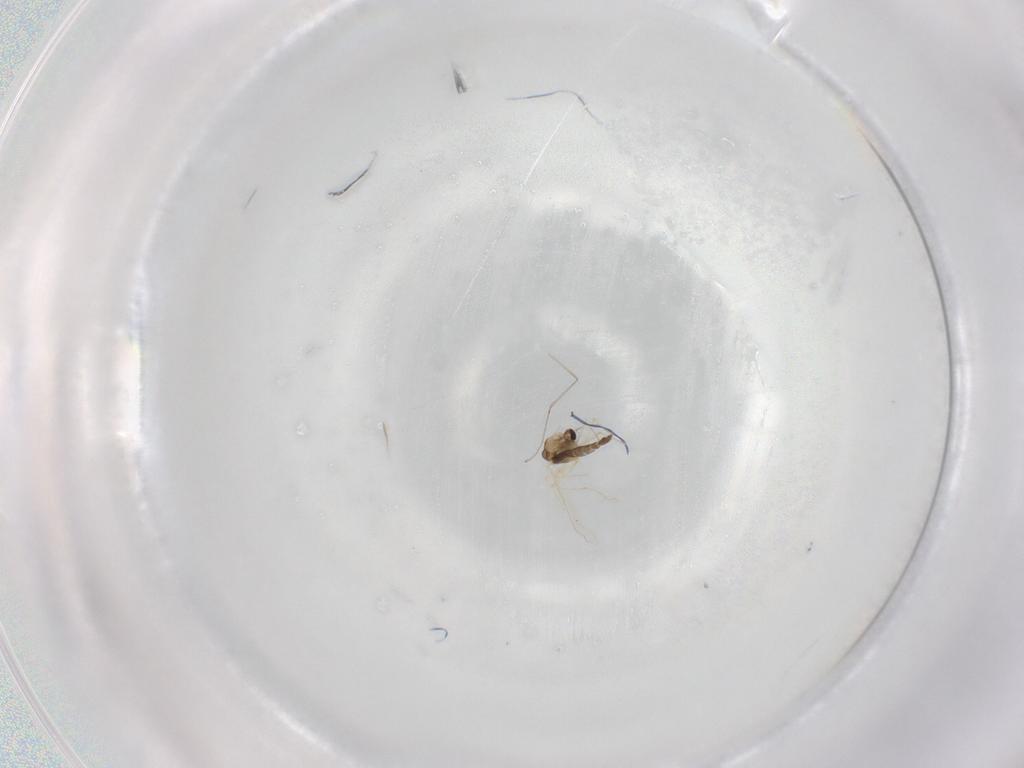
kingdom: Animalia
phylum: Arthropoda
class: Insecta
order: Diptera
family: Chironomidae
